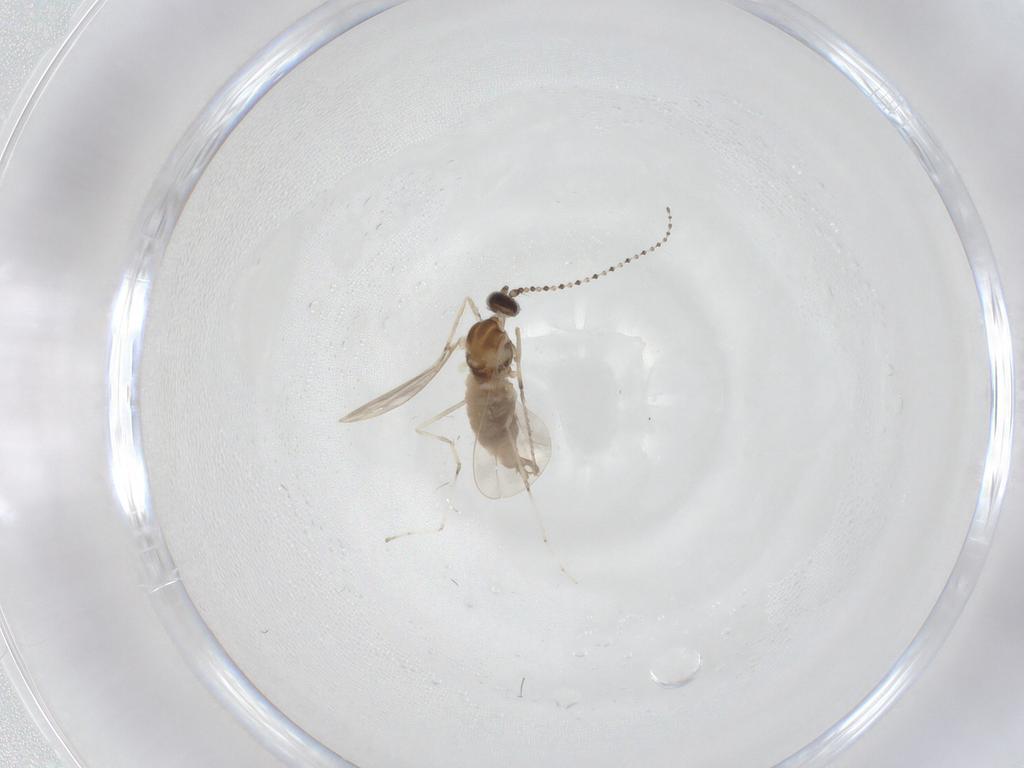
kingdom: Animalia
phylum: Arthropoda
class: Insecta
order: Diptera
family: Cecidomyiidae
